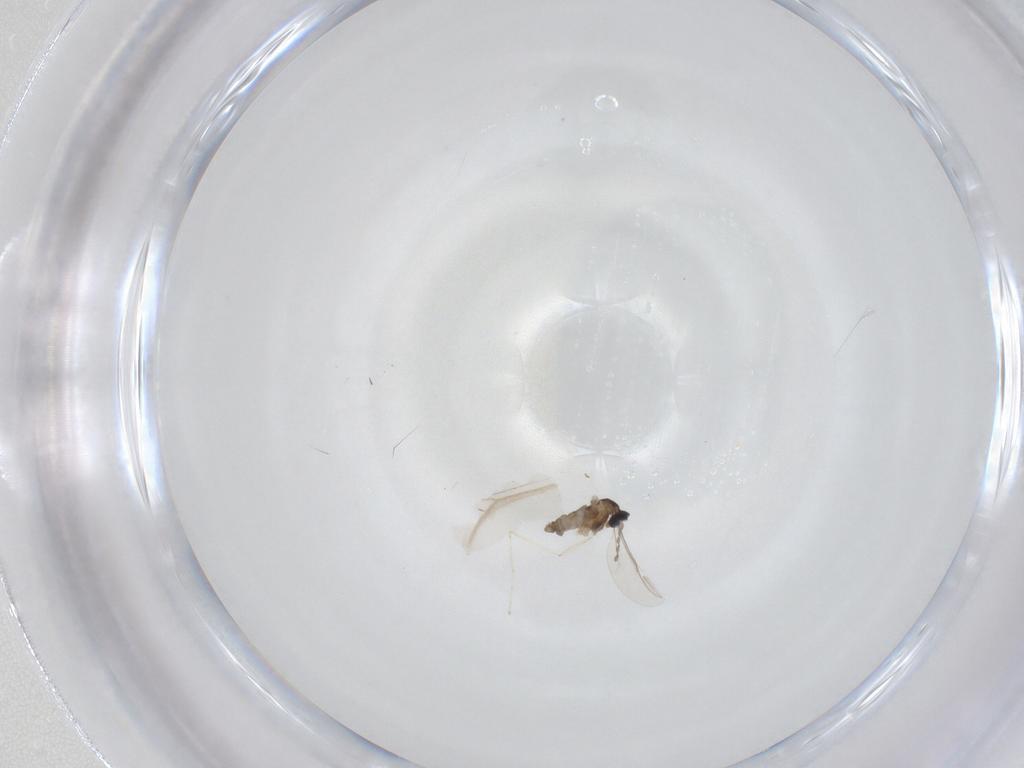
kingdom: Animalia
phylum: Arthropoda
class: Insecta
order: Diptera
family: Cecidomyiidae
